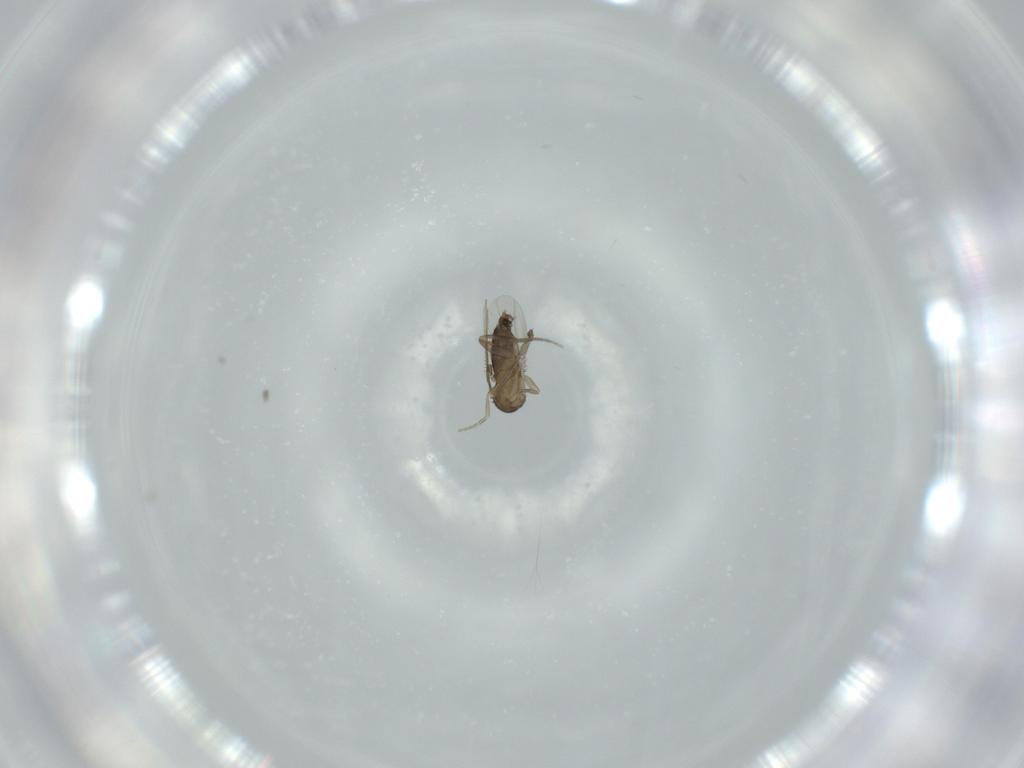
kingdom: Animalia
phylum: Arthropoda
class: Insecta
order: Diptera
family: Phoridae
